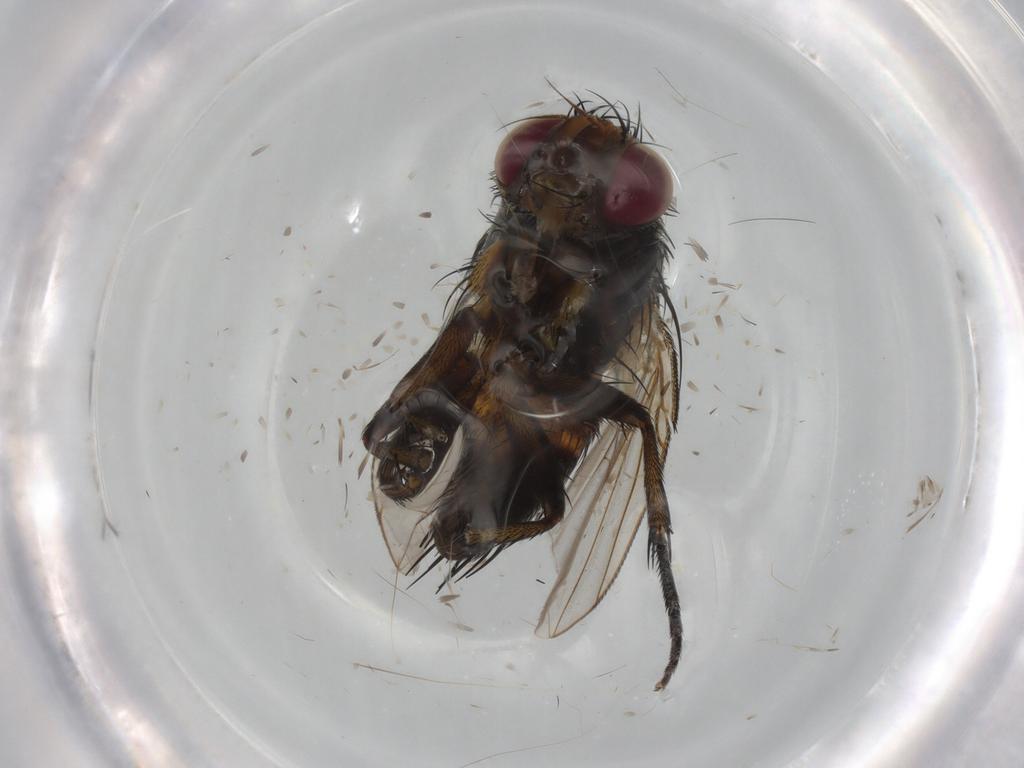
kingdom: Animalia
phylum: Arthropoda
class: Insecta
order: Diptera
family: Tachinidae
